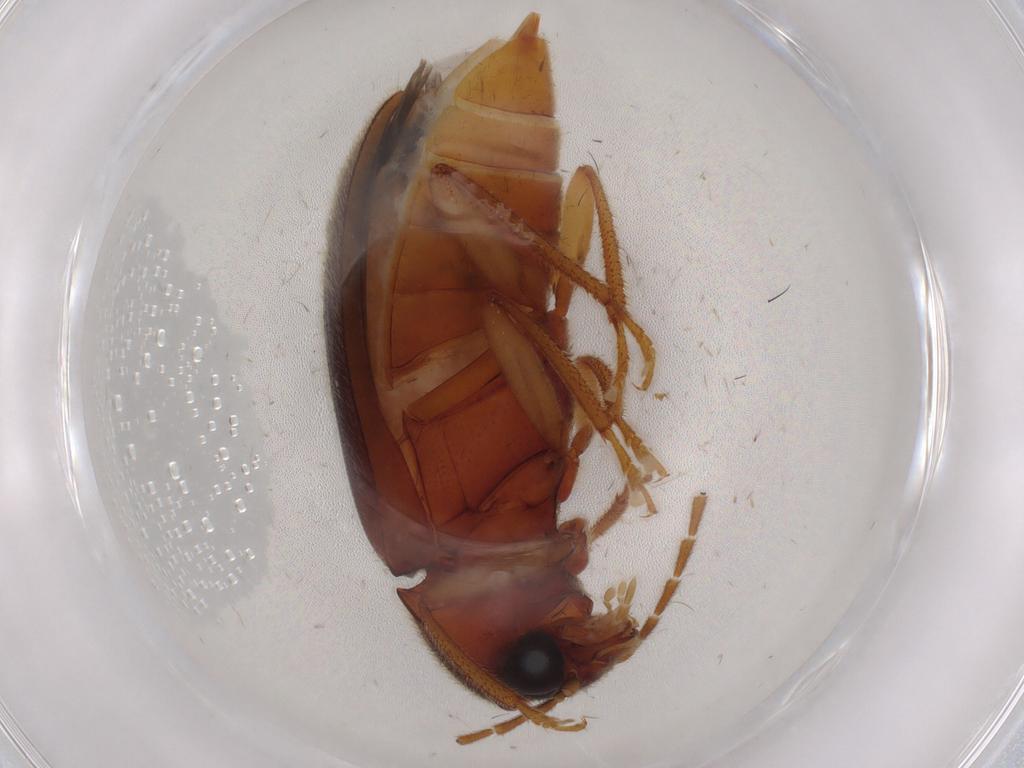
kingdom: Animalia
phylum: Arthropoda
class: Insecta
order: Coleoptera
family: Ptilodactylidae
